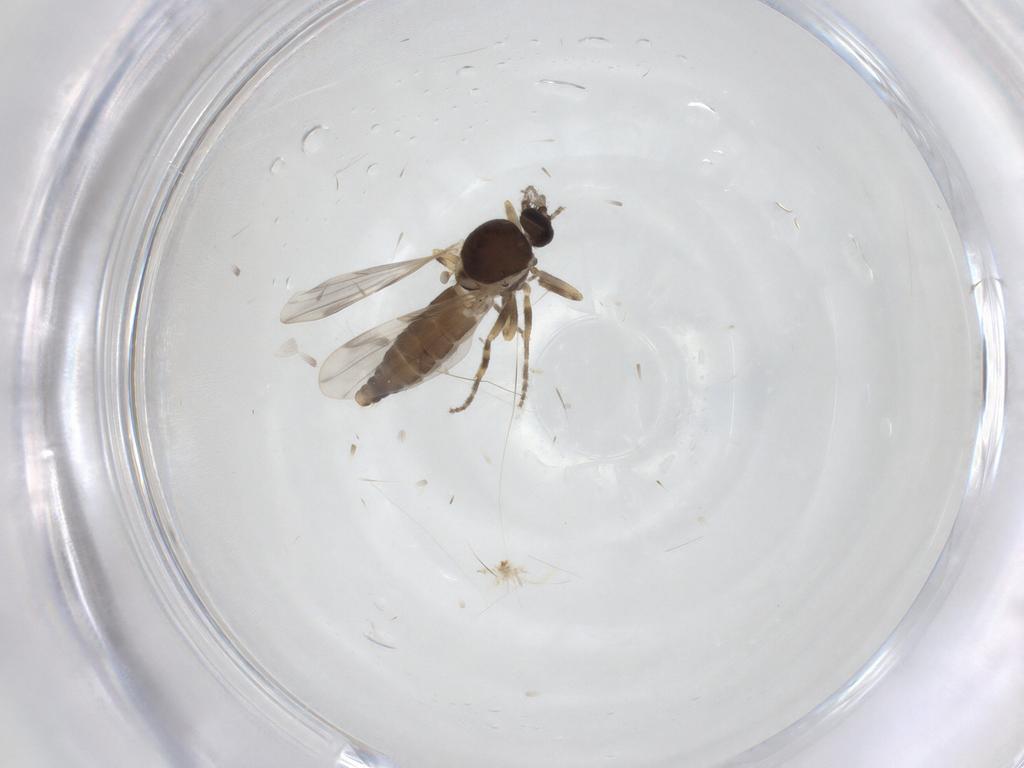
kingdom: Animalia
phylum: Arthropoda
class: Insecta
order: Diptera
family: Ceratopogonidae
